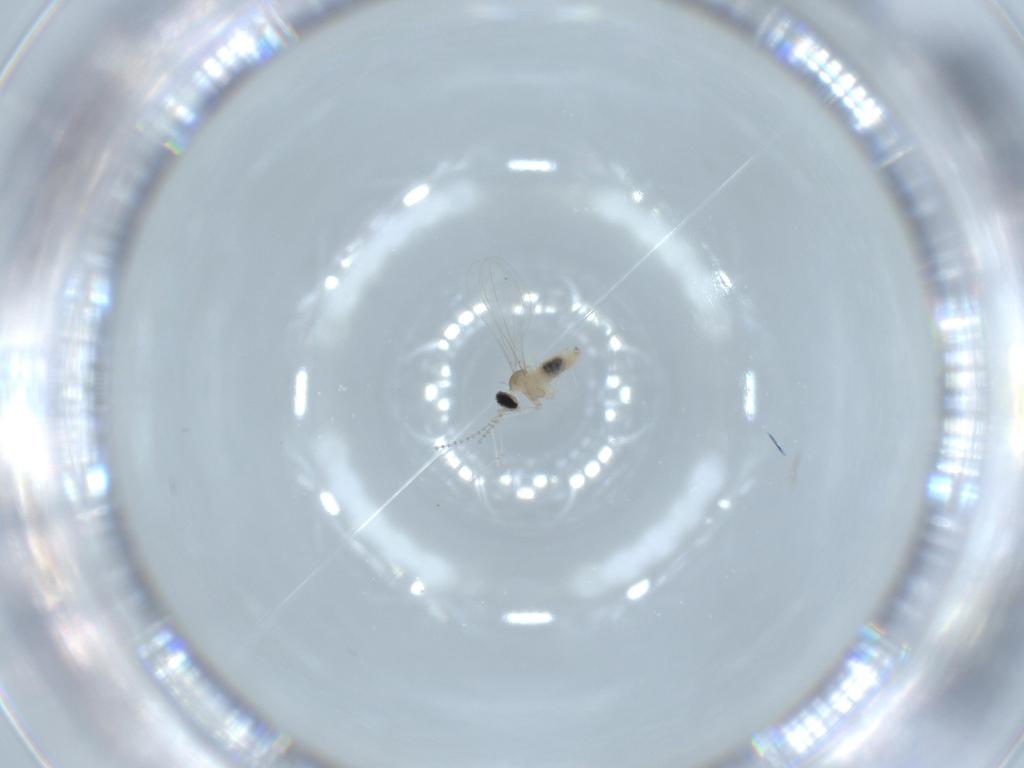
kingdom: Animalia
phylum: Arthropoda
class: Insecta
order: Diptera
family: Cecidomyiidae
